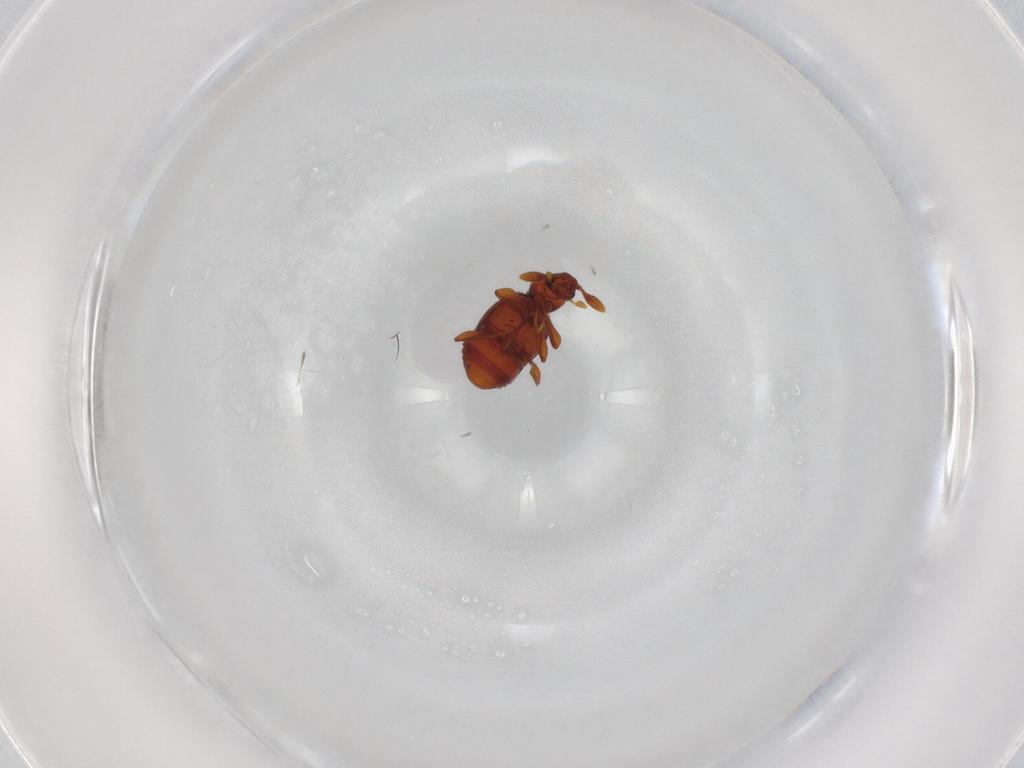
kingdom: Animalia
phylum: Arthropoda
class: Insecta
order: Coleoptera
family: Staphylinidae
